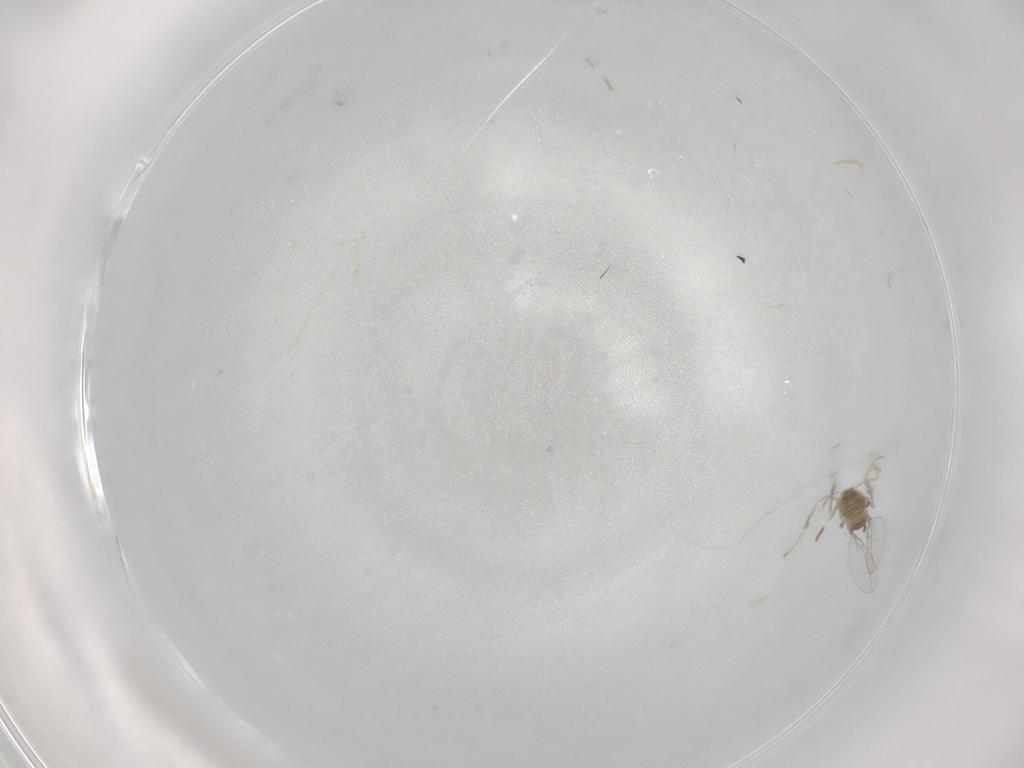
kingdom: Animalia
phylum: Arthropoda
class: Insecta
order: Diptera
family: Cecidomyiidae
